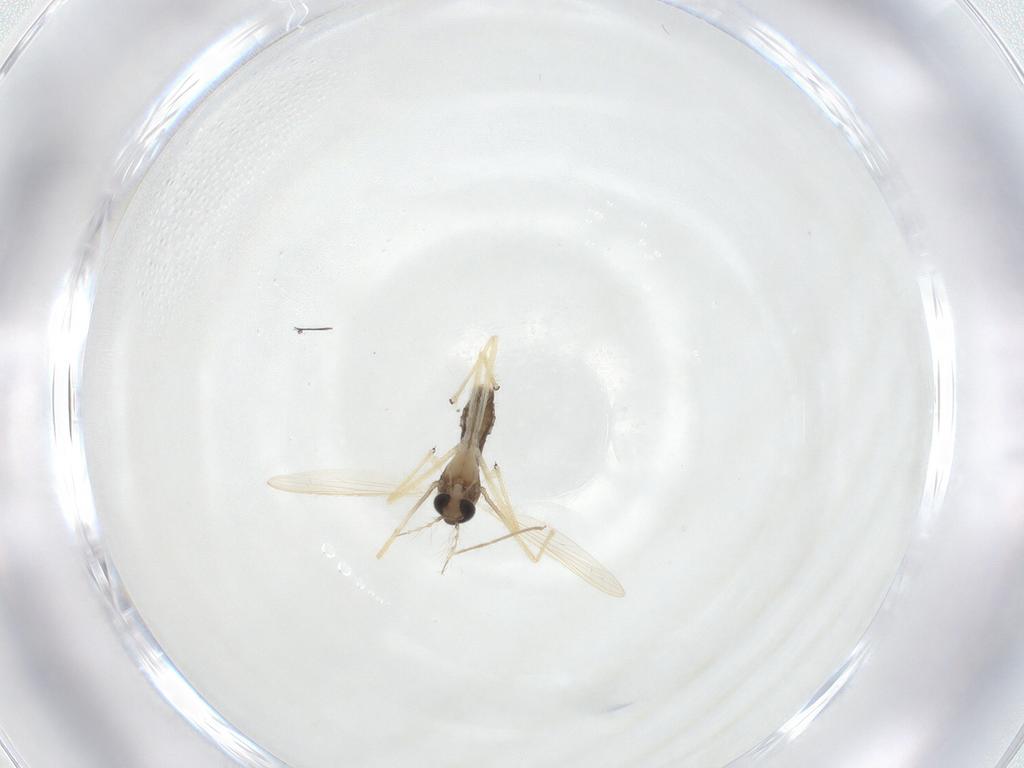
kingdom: Animalia
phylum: Arthropoda
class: Insecta
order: Diptera
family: Chironomidae
